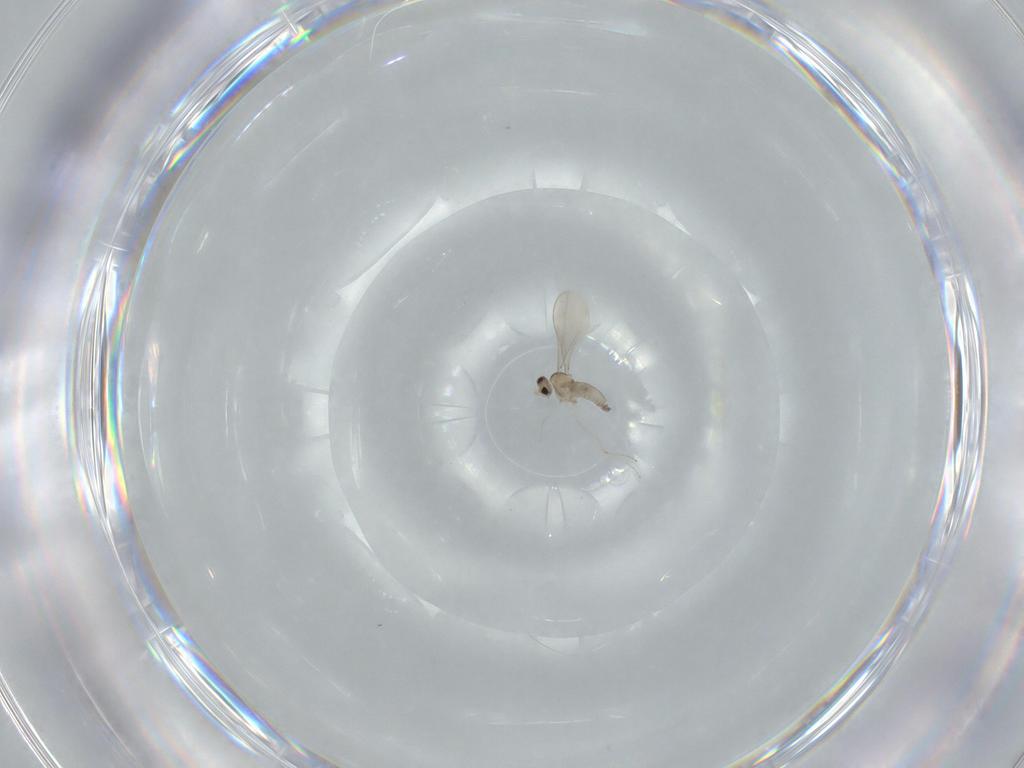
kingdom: Animalia
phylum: Arthropoda
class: Insecta
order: Diptera
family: Cecidomyiidae
